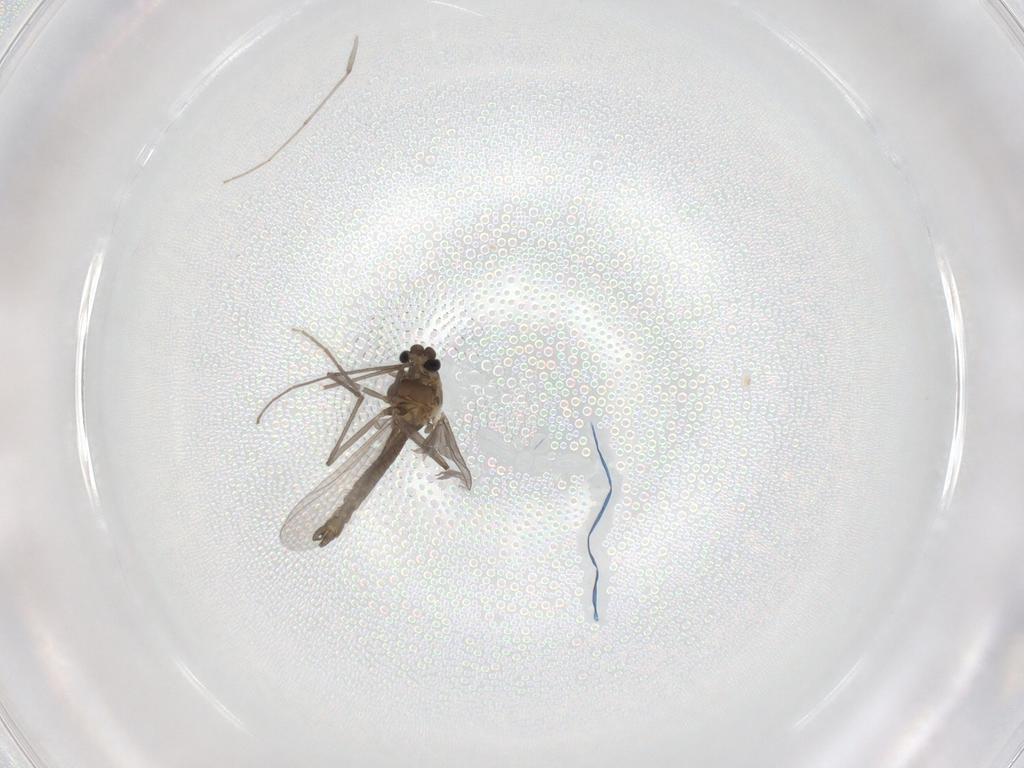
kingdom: Animalia
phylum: Arthropoda
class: Insecta
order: Diptera
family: Chironomidae
